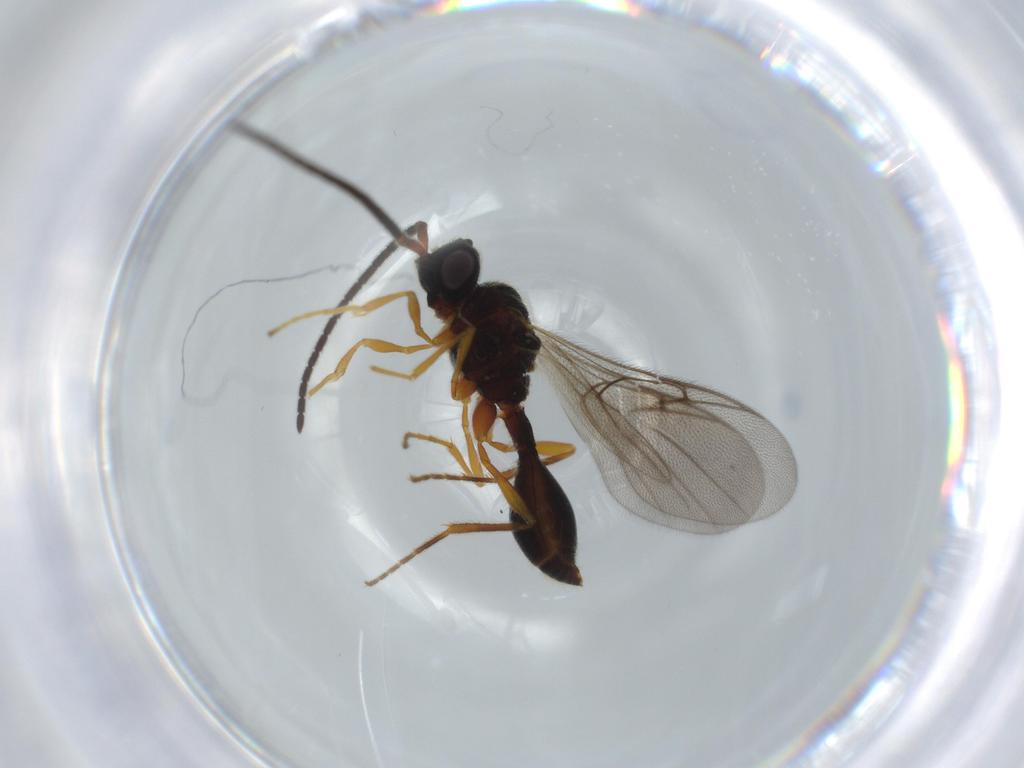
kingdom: Animalia
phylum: Arthropoda
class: Insecta
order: Hymenoptera
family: Diapriidae
